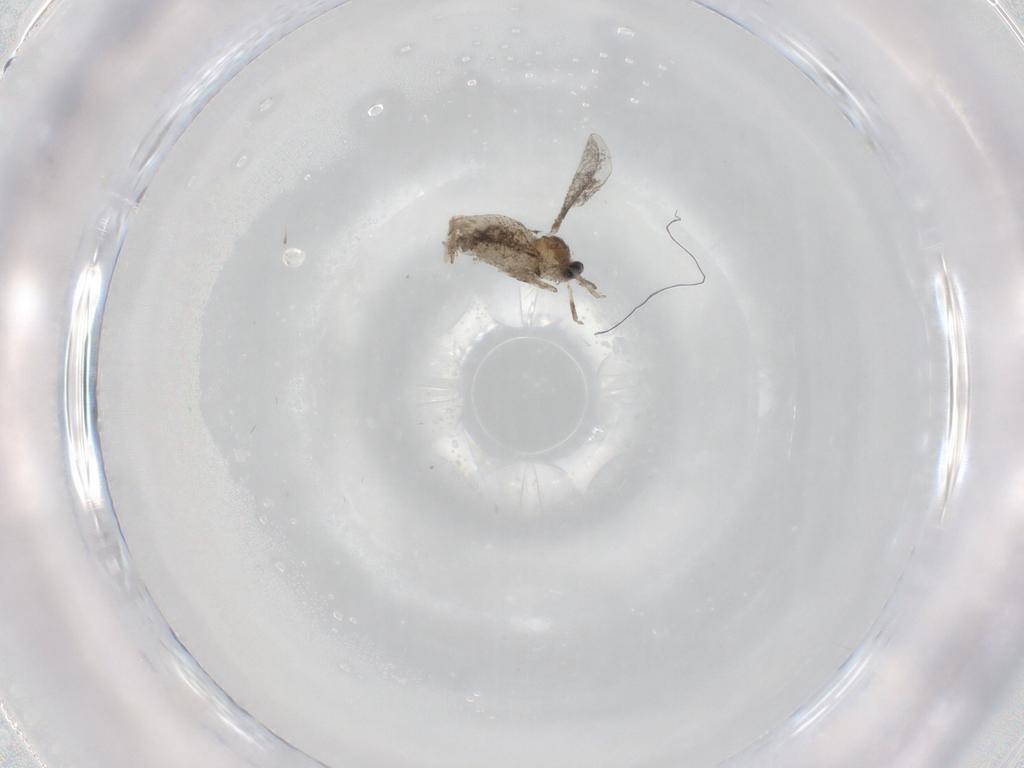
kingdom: Animalia
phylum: Arthropoda
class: Insecta
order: Diptera
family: Cecidomyiidae
